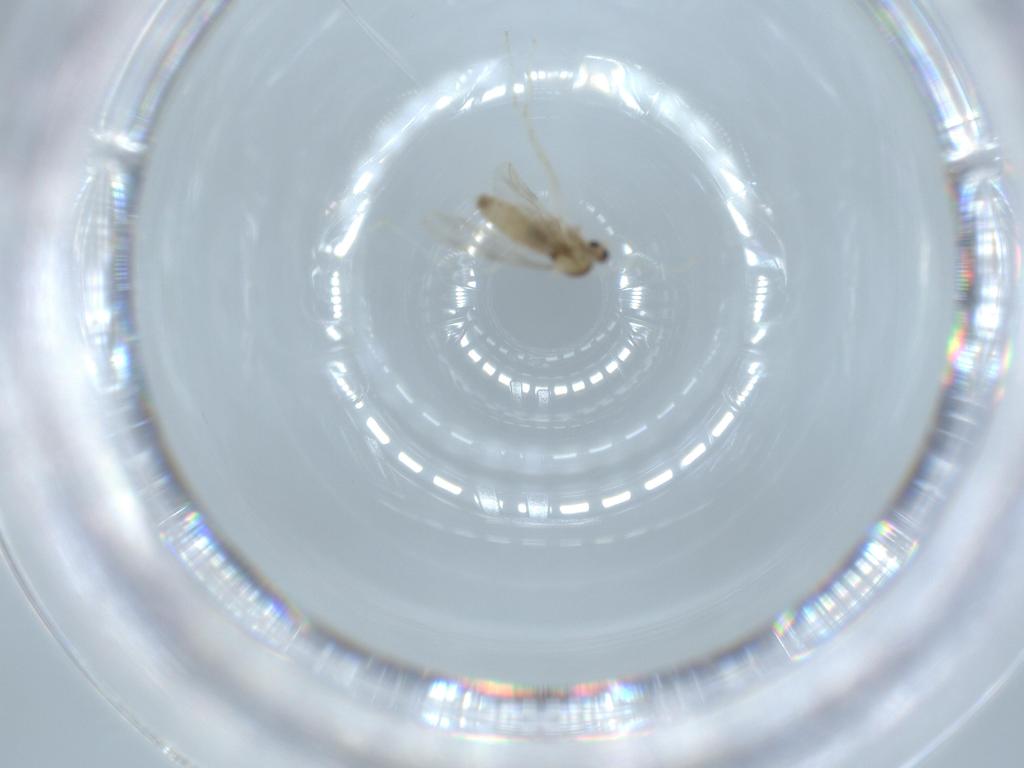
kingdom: Animalia
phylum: Arthropoda
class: Insecta
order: Diptera
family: Cecidomyiidae
